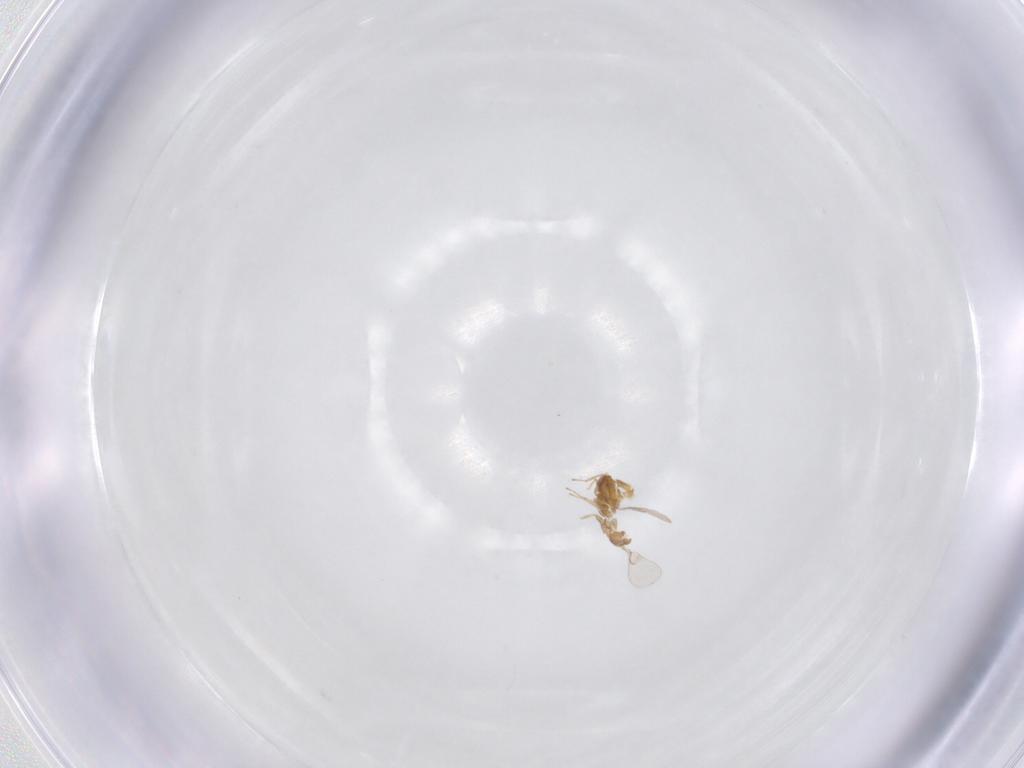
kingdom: Animalia
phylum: Arthropoda
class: Insecta
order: Hymenoptera
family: Trichogrammatidae
